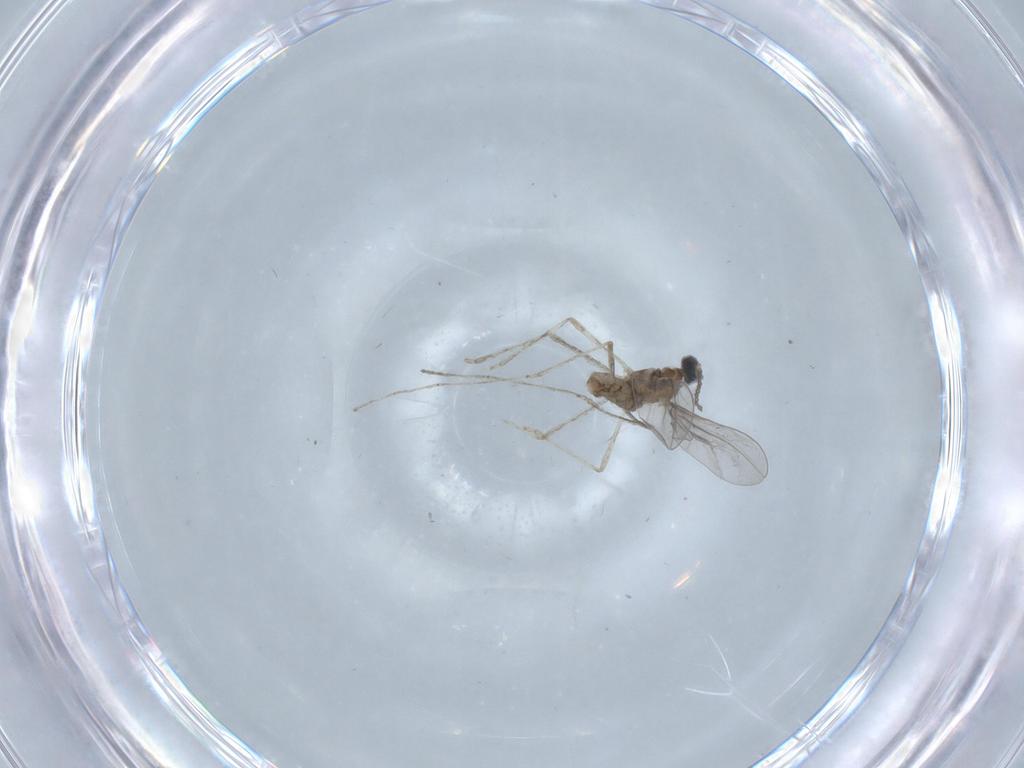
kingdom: Animalia
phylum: Arthropoda
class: Insecta
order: Diptera
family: Cecidomyiidae
